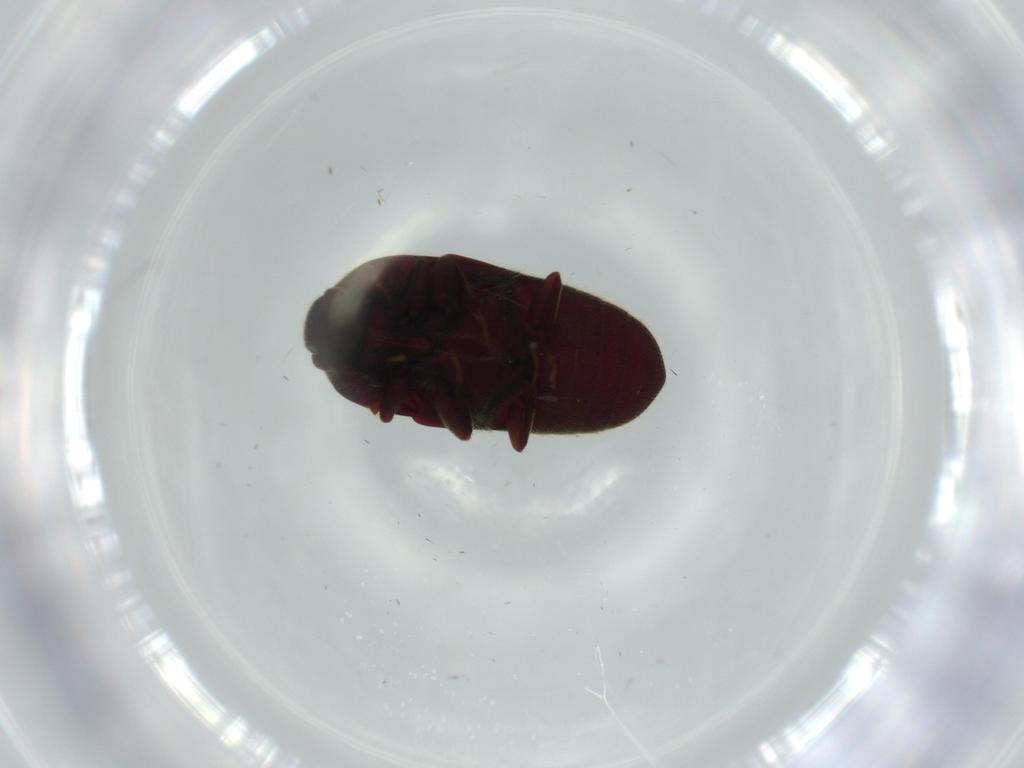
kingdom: Animalia
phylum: Arthropoda
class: Insecta
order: Coleoptera
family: Throscidae
